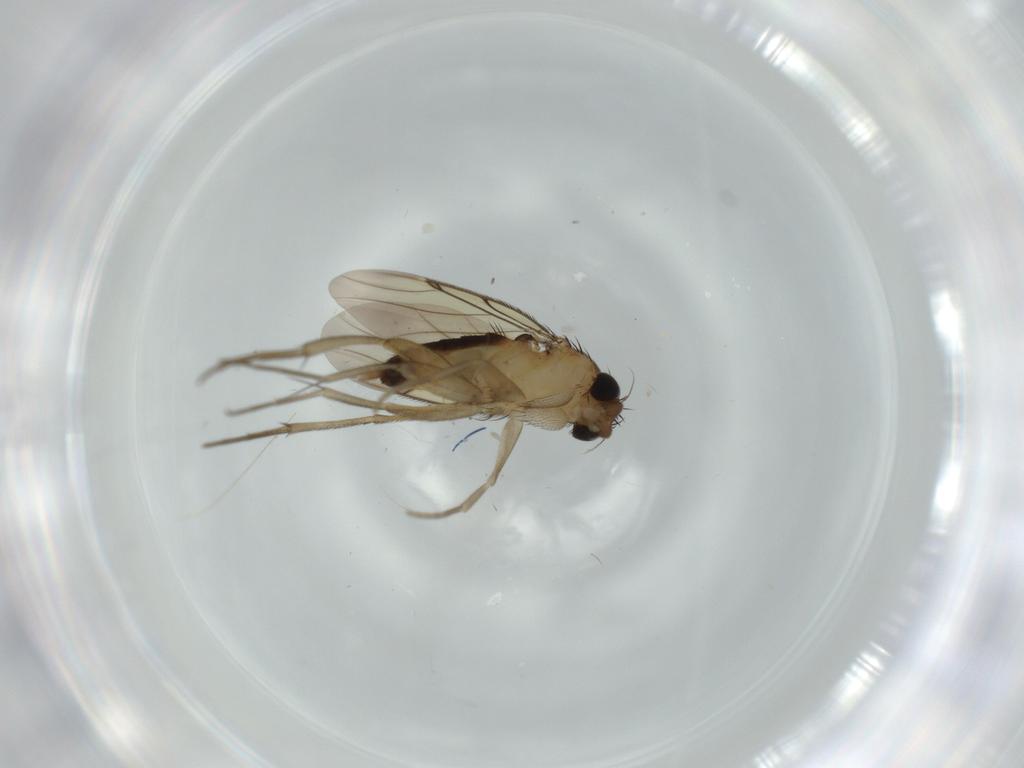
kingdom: Animalia
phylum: Arthropoda
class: Insecta
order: Diptera
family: Phoridae
